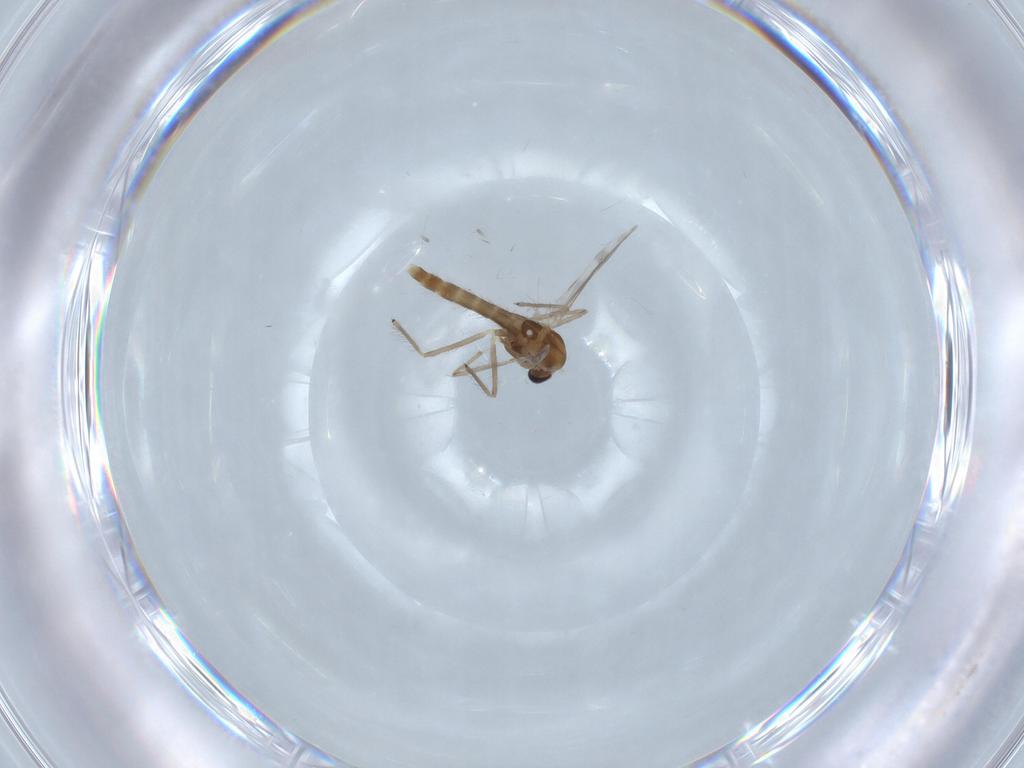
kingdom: Animalia
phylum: Arthropoda
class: Insecta
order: Diptera
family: Chironomidae
